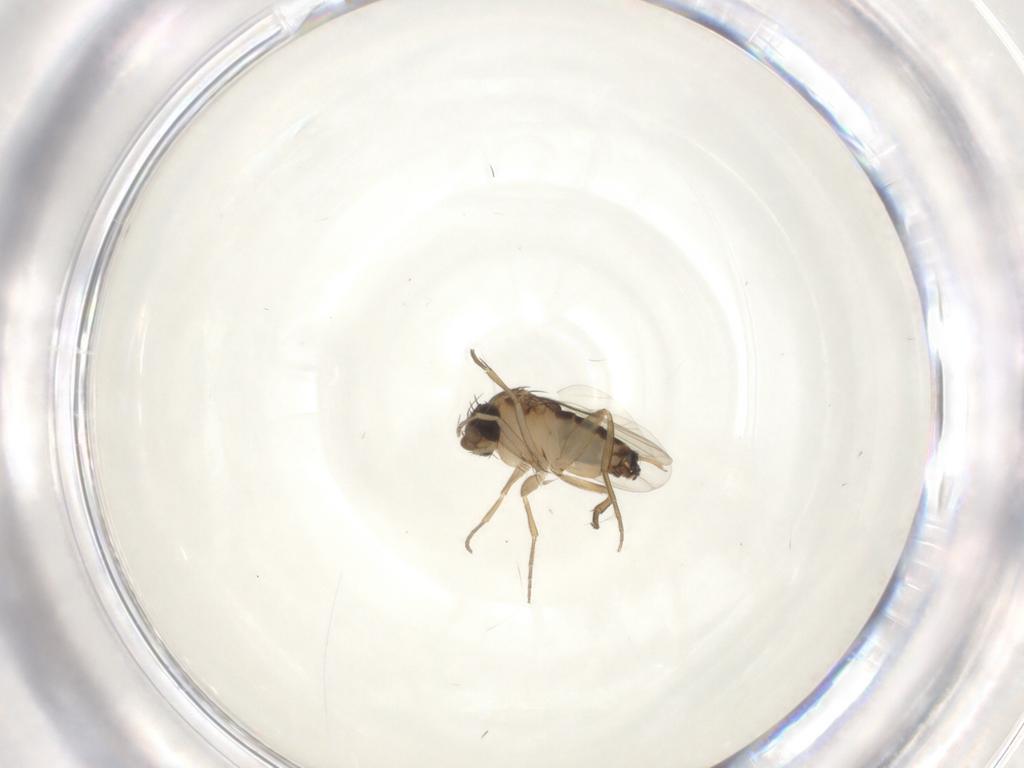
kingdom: Animalia
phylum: Arthropoda
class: Insecta
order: Diptera
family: Phoridae
